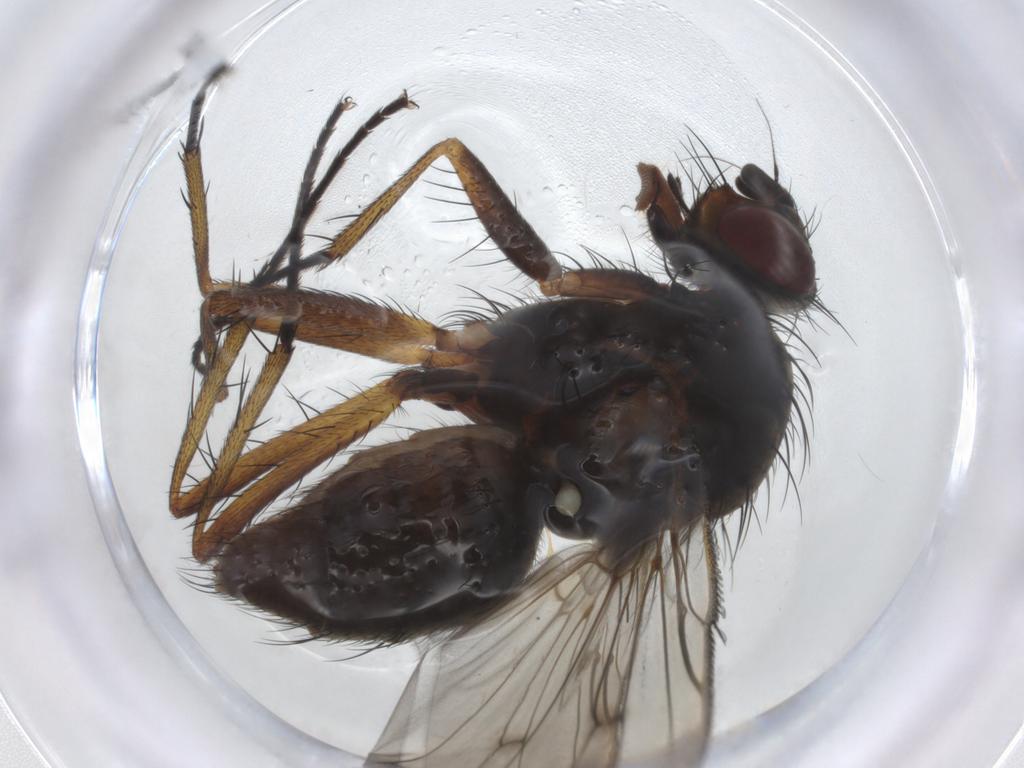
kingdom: Animalia
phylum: Arthropoda
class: Insecta
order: Diptera
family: Anthomyiidae
